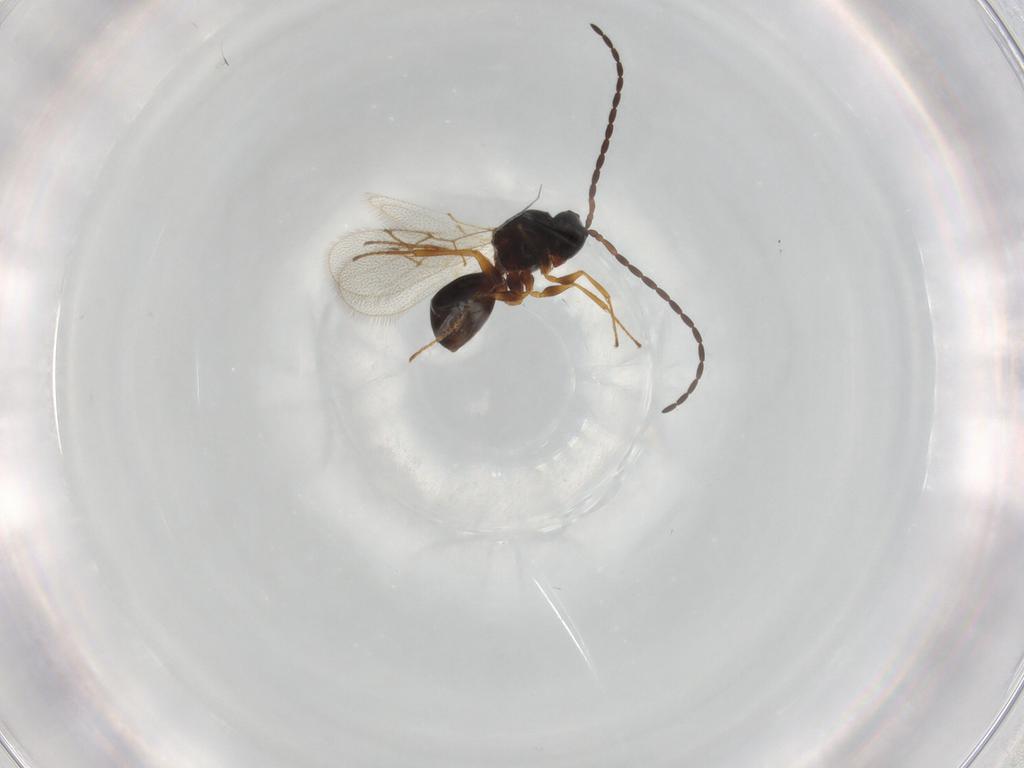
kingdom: Animalia
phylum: Arthropoda
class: Insecta
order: Hymenoptera
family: Figitidae
